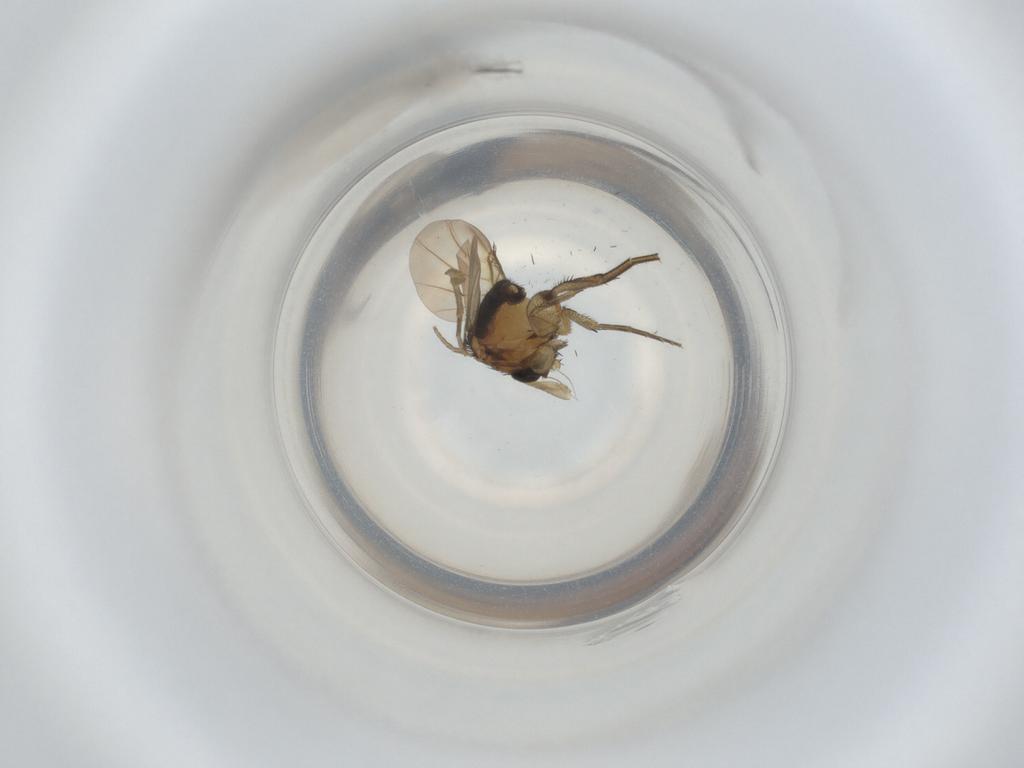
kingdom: Animalia
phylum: Arthropoda
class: Insecta
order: Diptera
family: Phoridae
